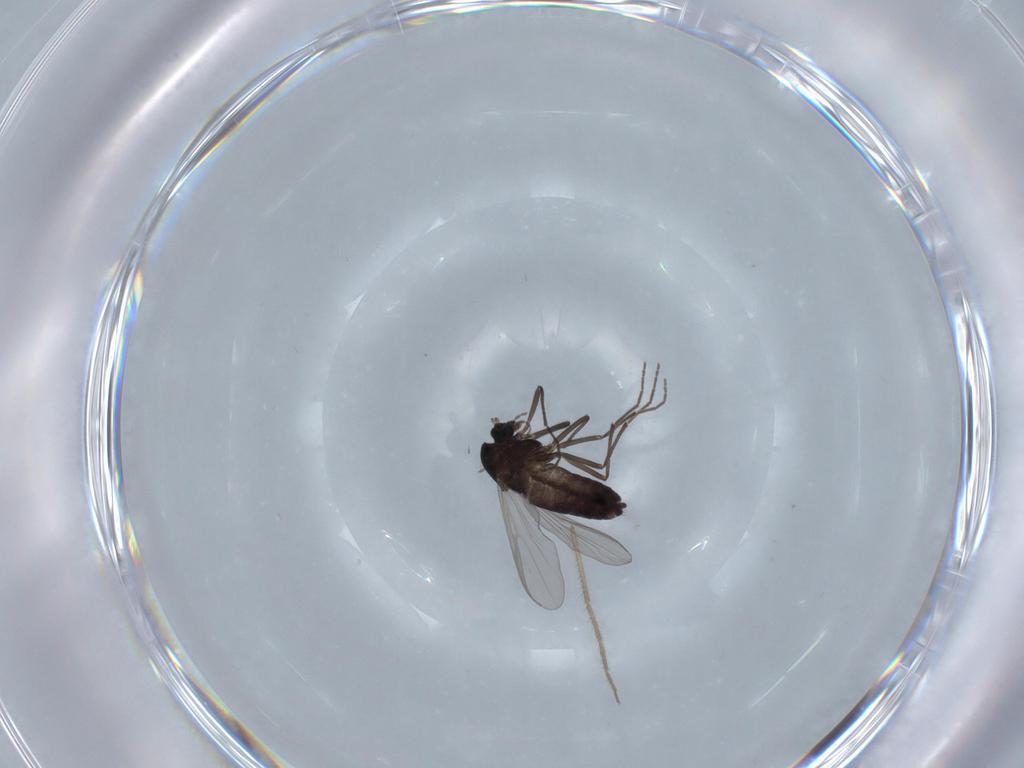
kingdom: Animalia
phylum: Arthropoda
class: Insecta
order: Diptera
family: Chironomidae
